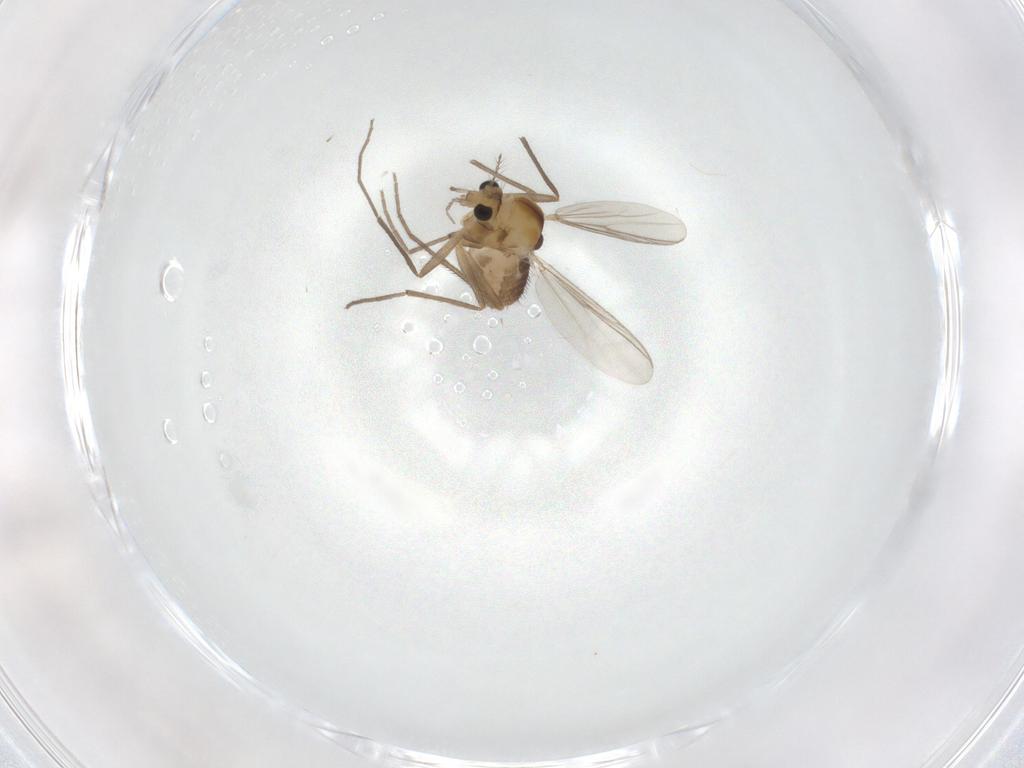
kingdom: Animalia
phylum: Arthropoda
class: Insecta
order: Diptera
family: Chironomidae
